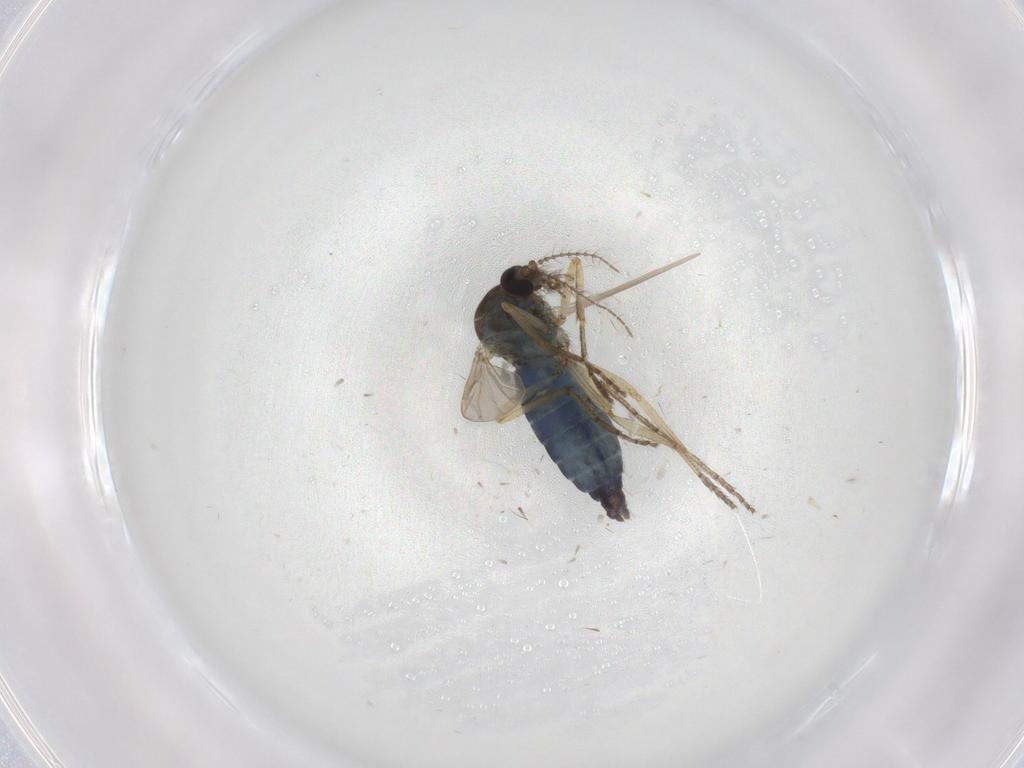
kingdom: Animalia
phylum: Arthropoda
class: Insecta
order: Diptera
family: Ceratopogonidae
